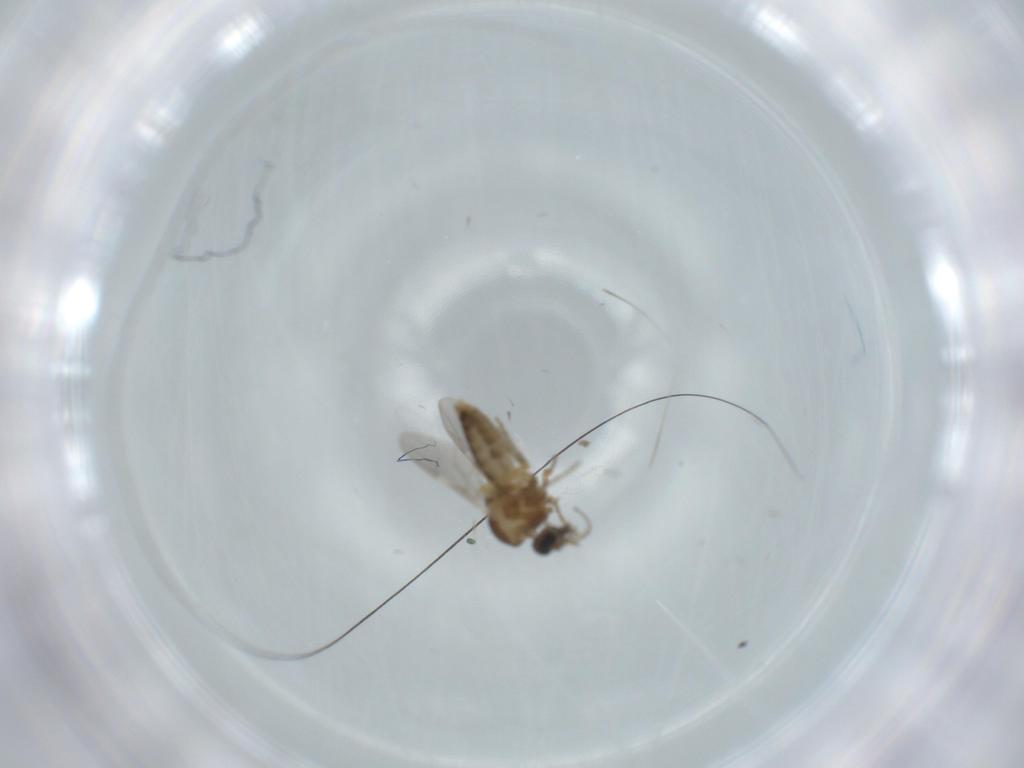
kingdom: Animalia
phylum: Arthropoda
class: Insecta
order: Diptera
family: Ceratopogonidae
